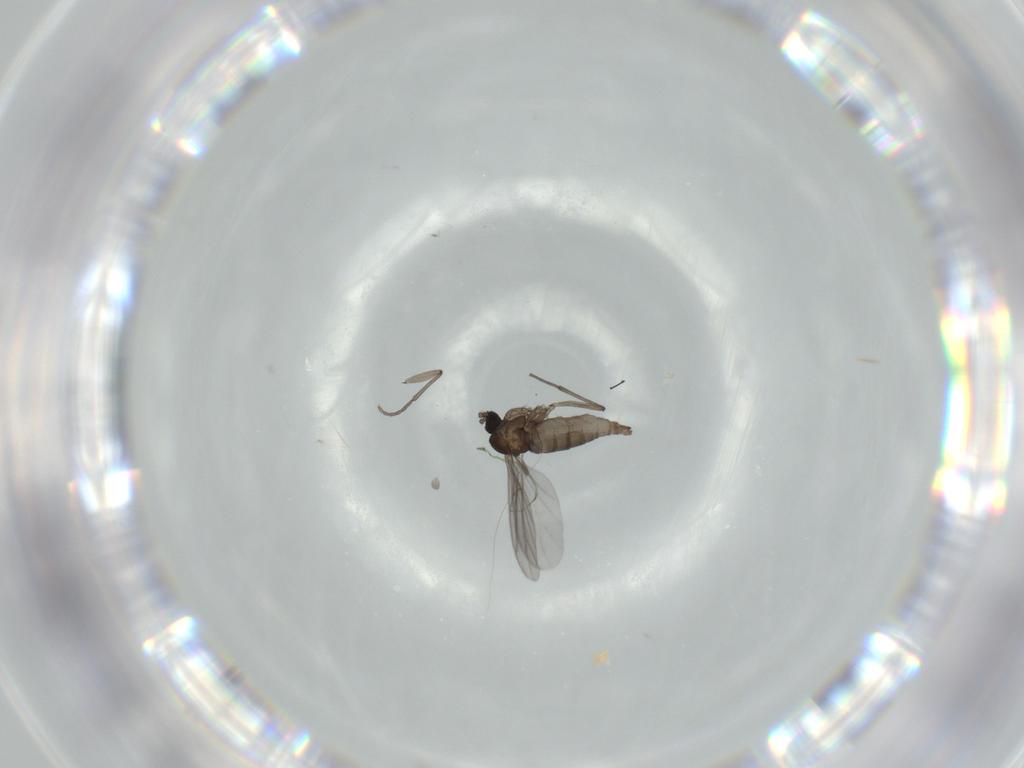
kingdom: Animalia
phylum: Arthropoda
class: Insecta
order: Diptera
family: Sciaridae
